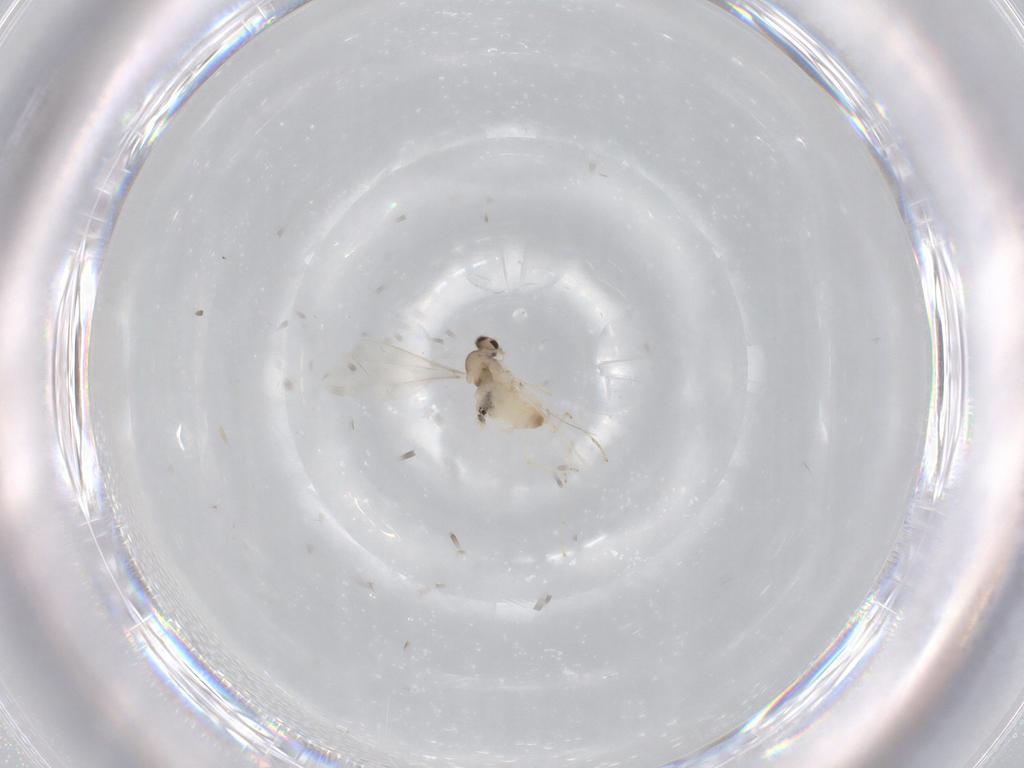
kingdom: Animalia
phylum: Arthropoda
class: Insecta
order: Diptera
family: Cecidomyiidae
